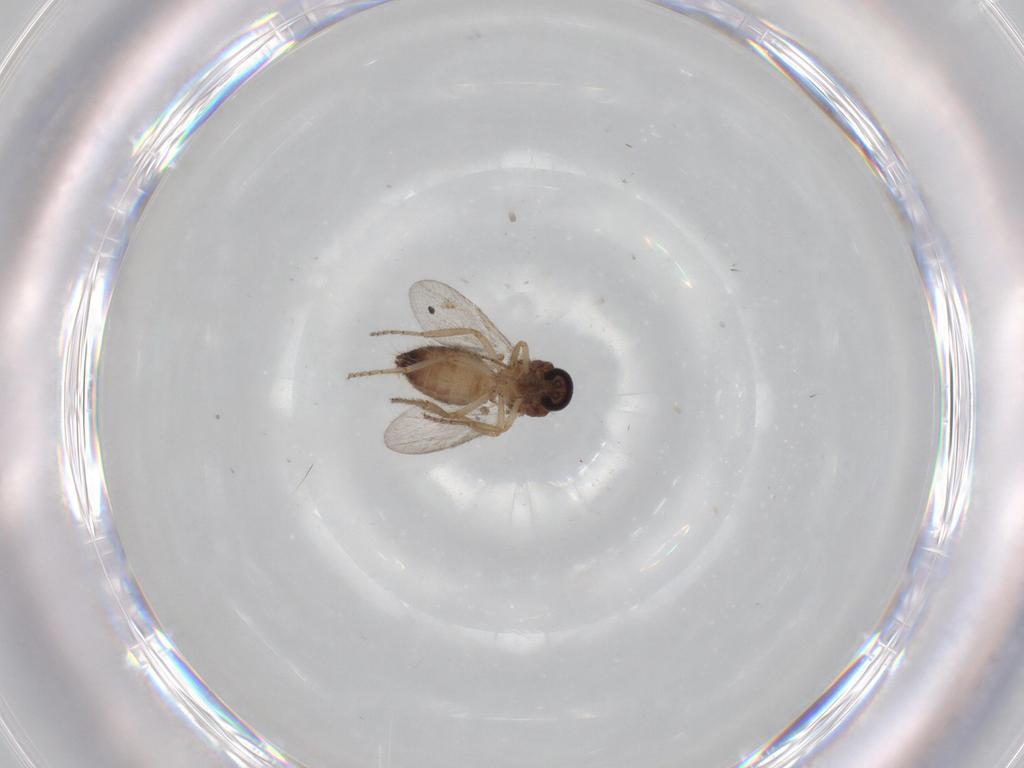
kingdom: Animalia
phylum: Arthropoda
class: Insecta
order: Diptera
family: Ceratopogonidae
